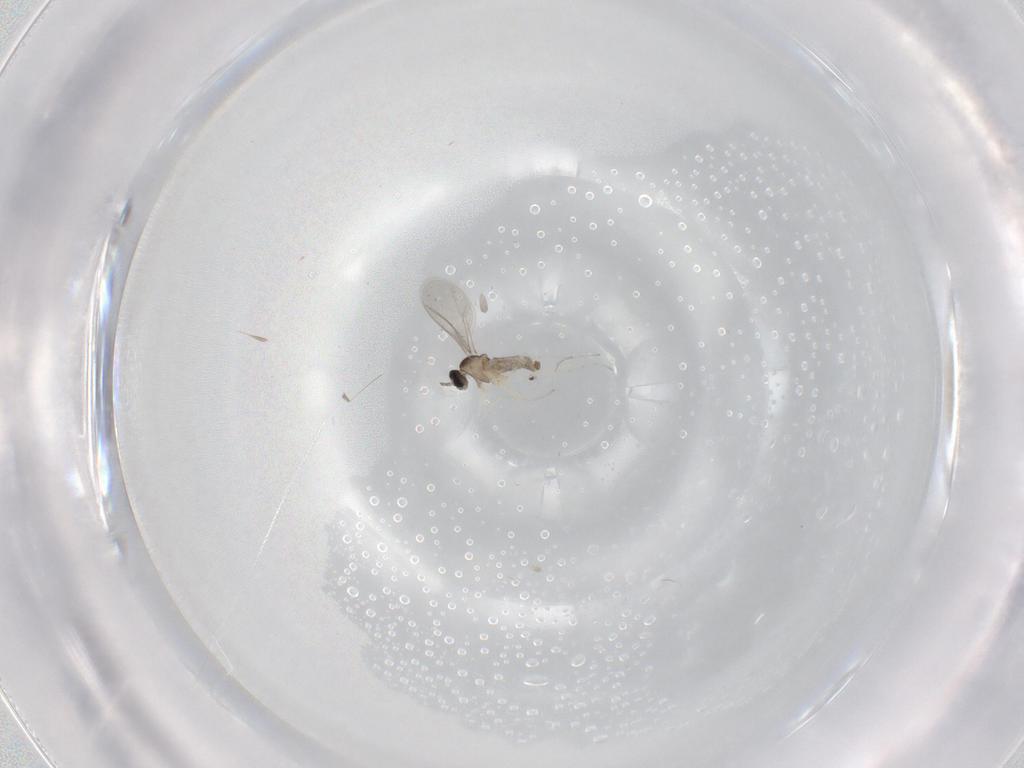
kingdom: Animalia
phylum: Arthropoda
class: Insecta
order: Diptera
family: Cecidomyiidae
